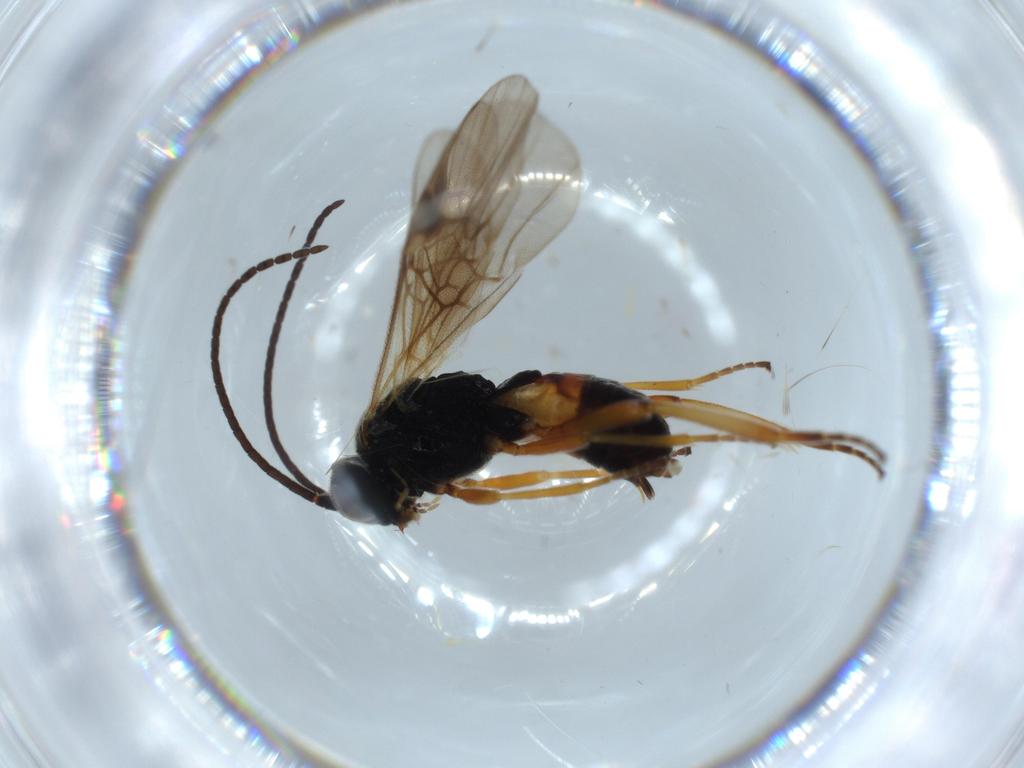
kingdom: Animalia
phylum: Arthropoda
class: Insecta
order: Hymenoptera
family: Braconidae
